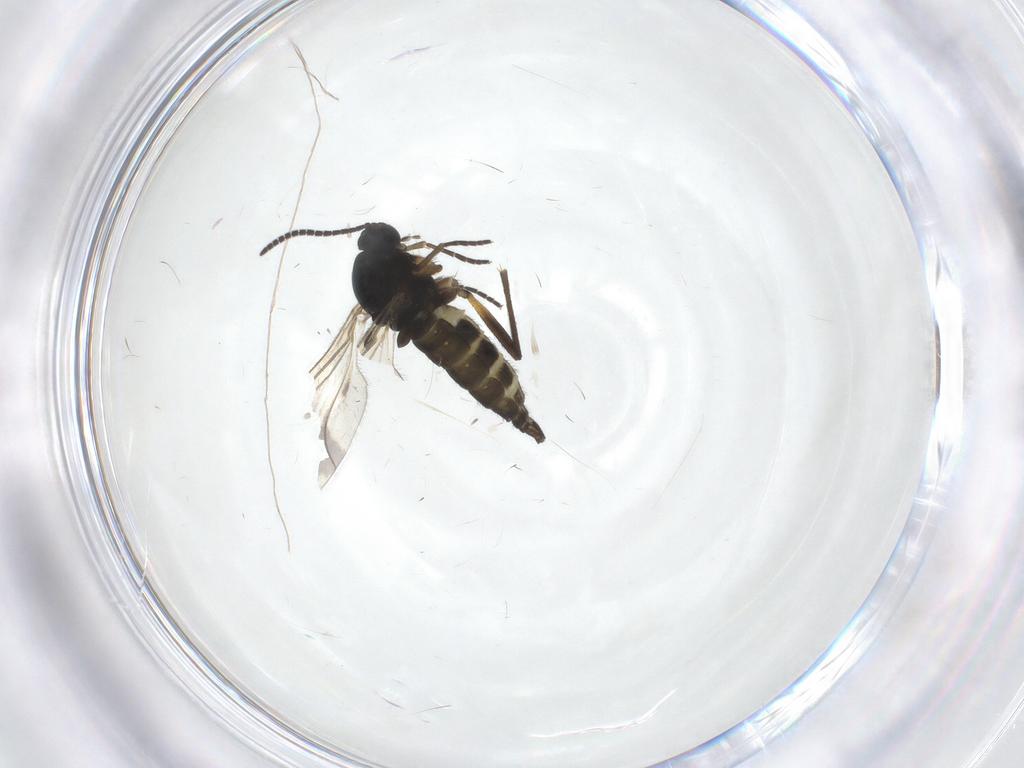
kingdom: Animalia
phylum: Arthropoda
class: Insecta
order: Diptera
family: Sciaridae
